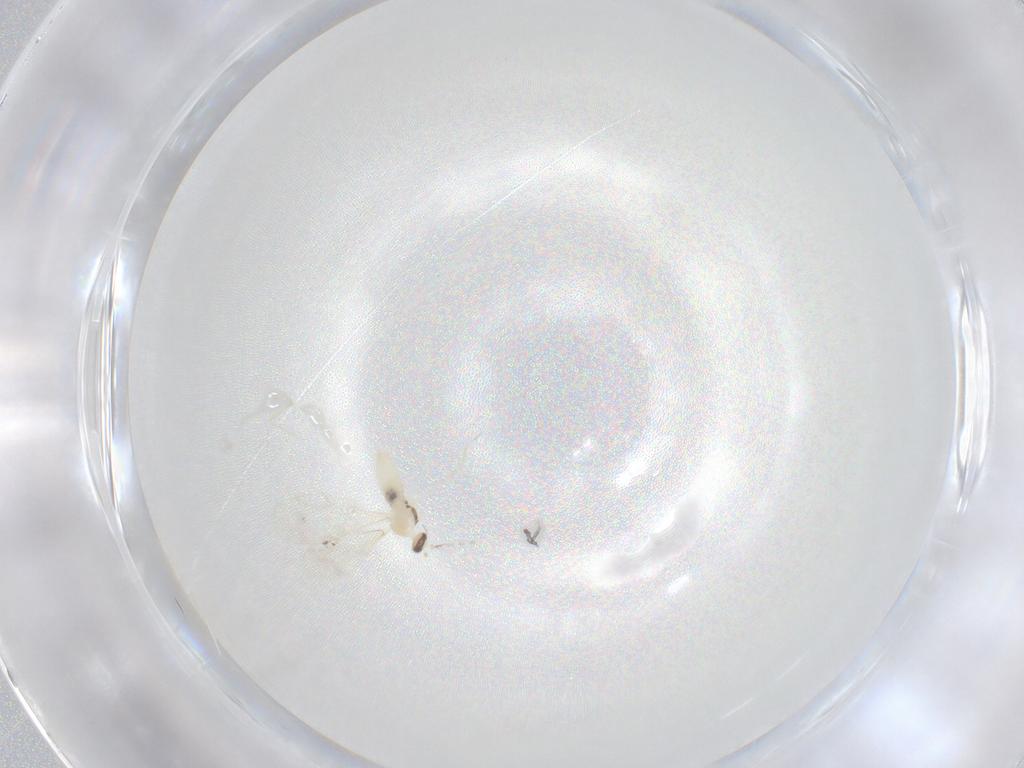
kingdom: Animalia
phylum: Arthropoda
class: Insecta
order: Diptera
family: Cecidomyiidae
